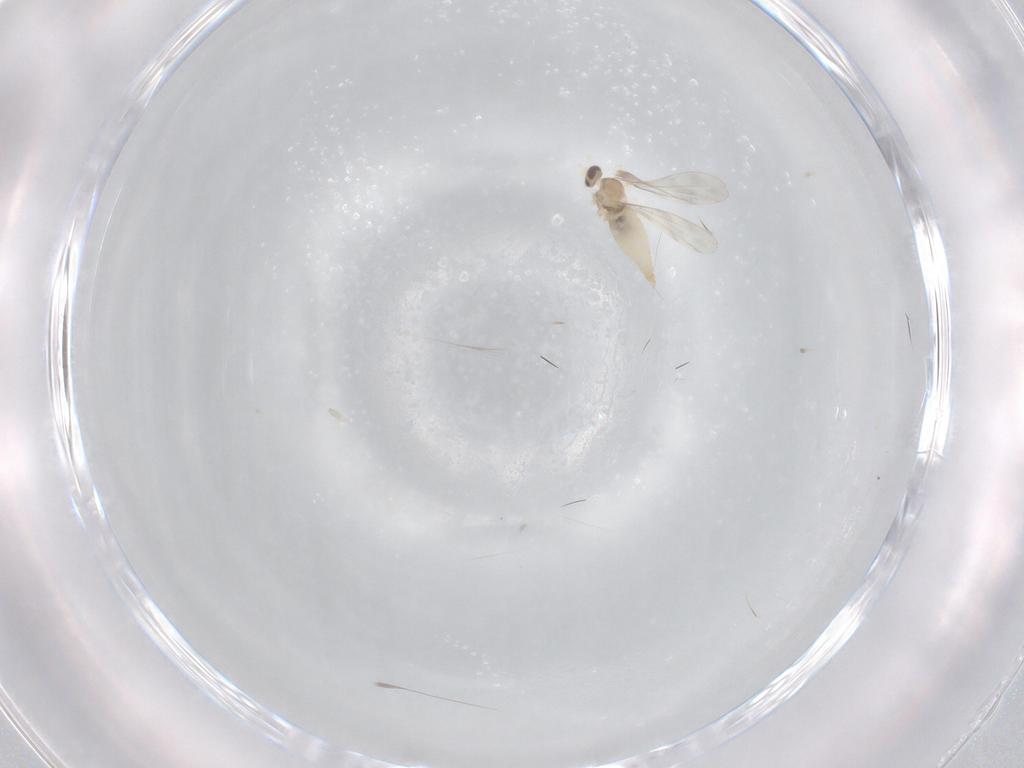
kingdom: Animalia
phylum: Arthropoda
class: Insecta
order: Diptera
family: Cecidomyiidae
